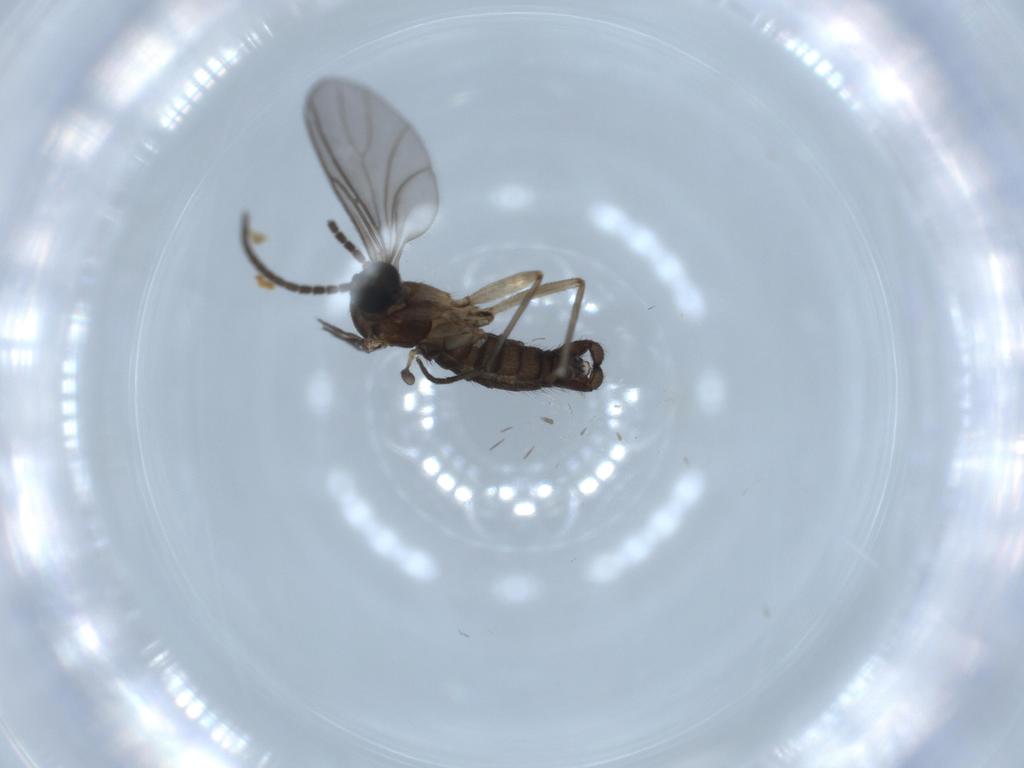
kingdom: Animalia
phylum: Arthropoda
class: Insecta
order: Diptera
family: Sciaridae
